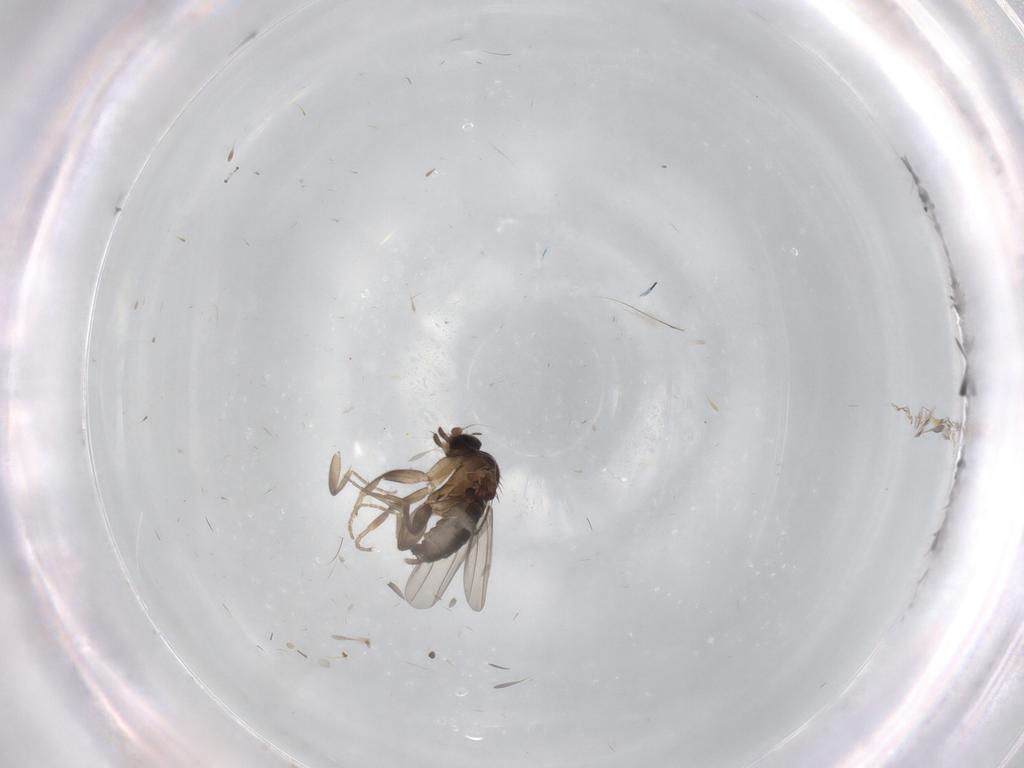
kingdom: Animalia
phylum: Arthropoda
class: Insecta
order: Diptera
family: Phoridae
